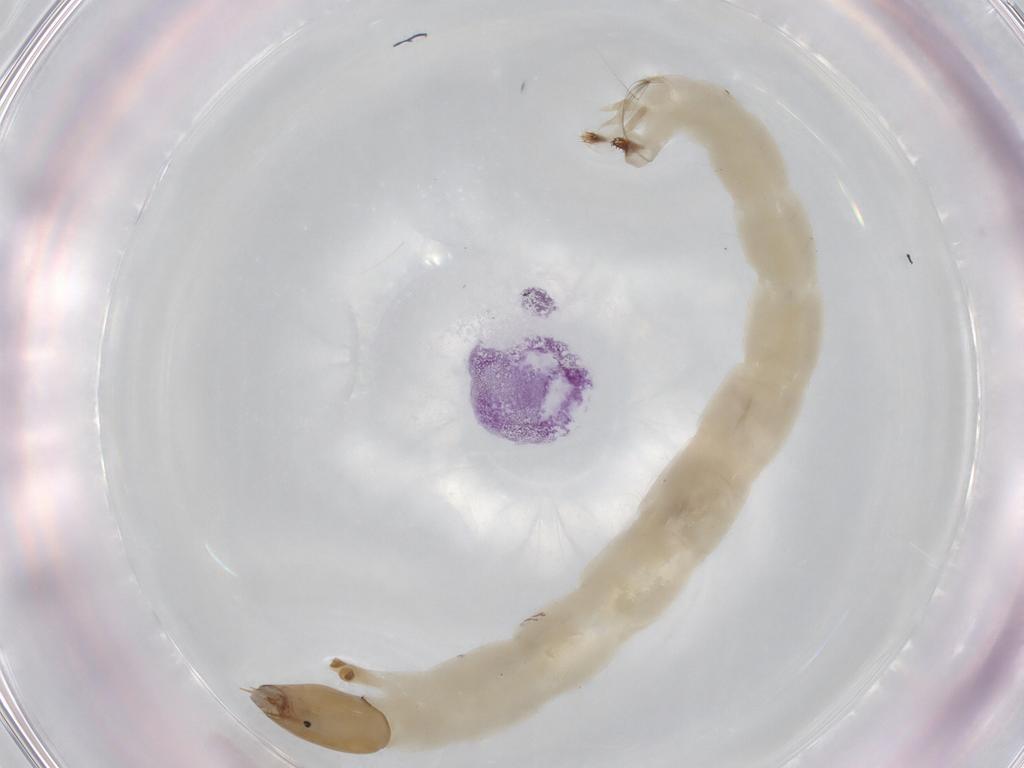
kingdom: Animalia
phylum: Arthropoda
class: Insecta
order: Diptera
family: Chironomidae
